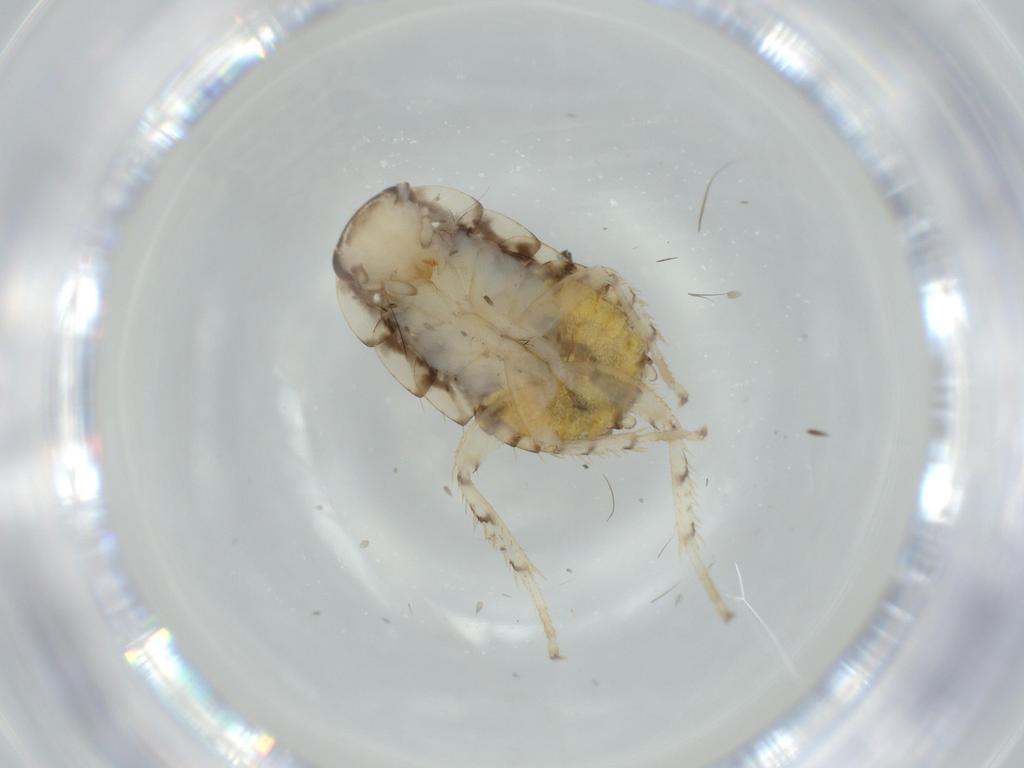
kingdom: Animalia
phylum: Arthropoda
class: Insecta
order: Blattodea
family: Ectobiidae
